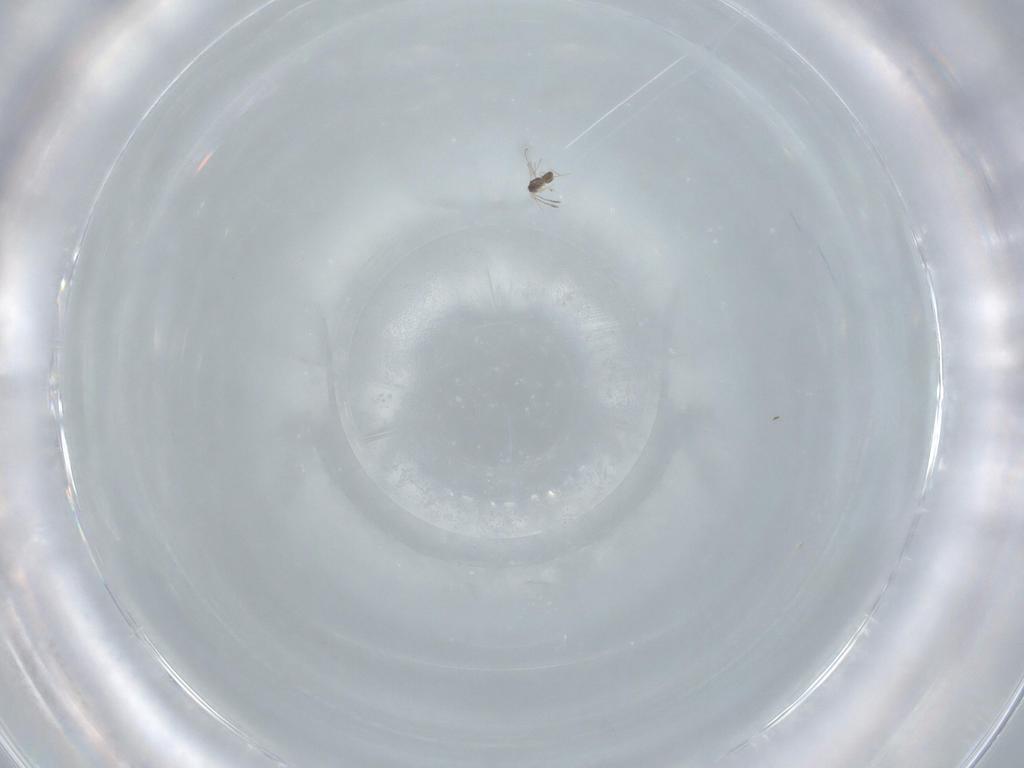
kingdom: Animalia
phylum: Arthropoda
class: Insecta
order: Hymenoptera
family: Scelionidae
